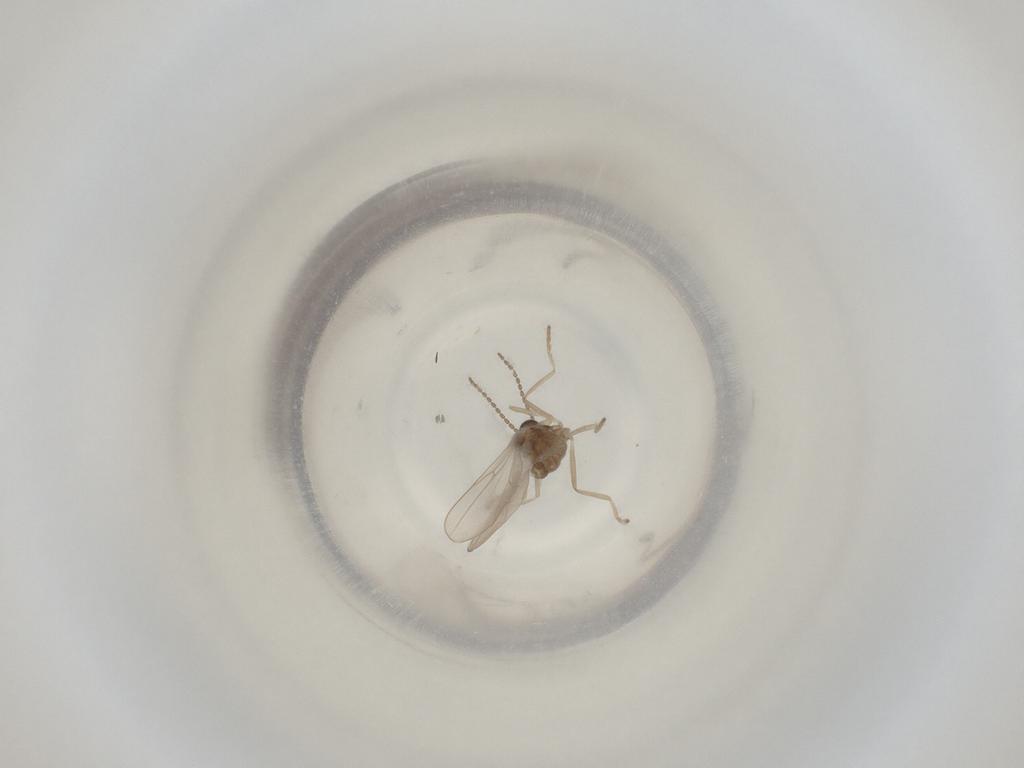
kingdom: Animalia
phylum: Arthropoda
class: Insecta
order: Diptera
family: Cecidomyiidae
